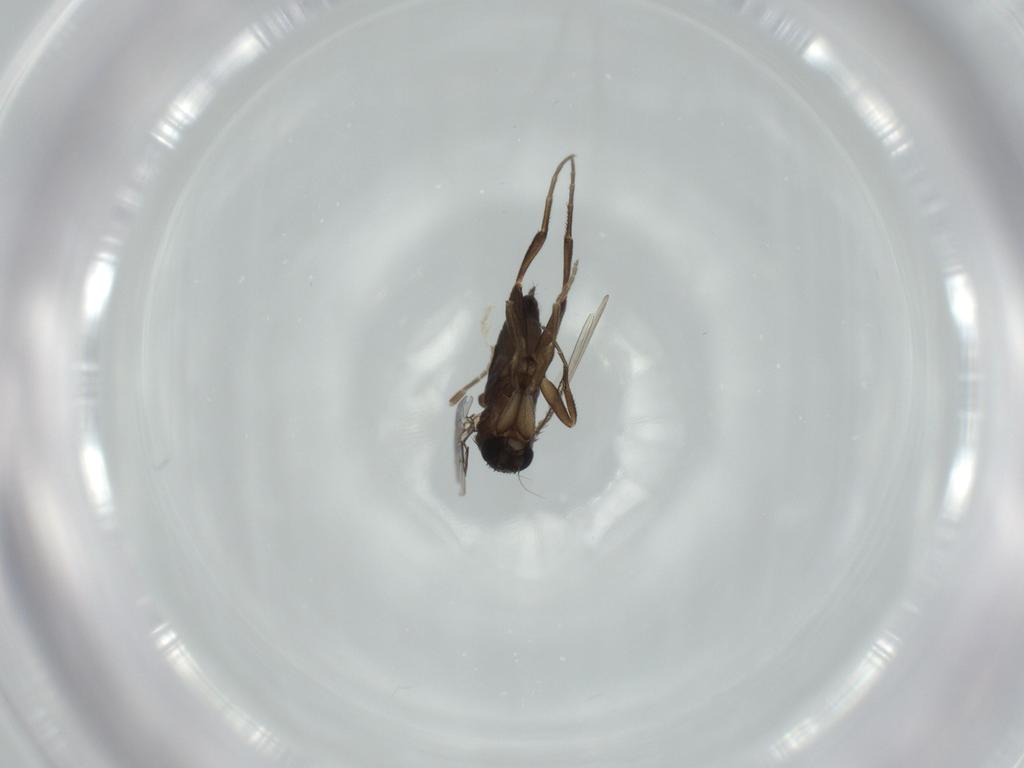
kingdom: Animalia
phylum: Arthropoda
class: Insecta
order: Diptera
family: Phoridae
